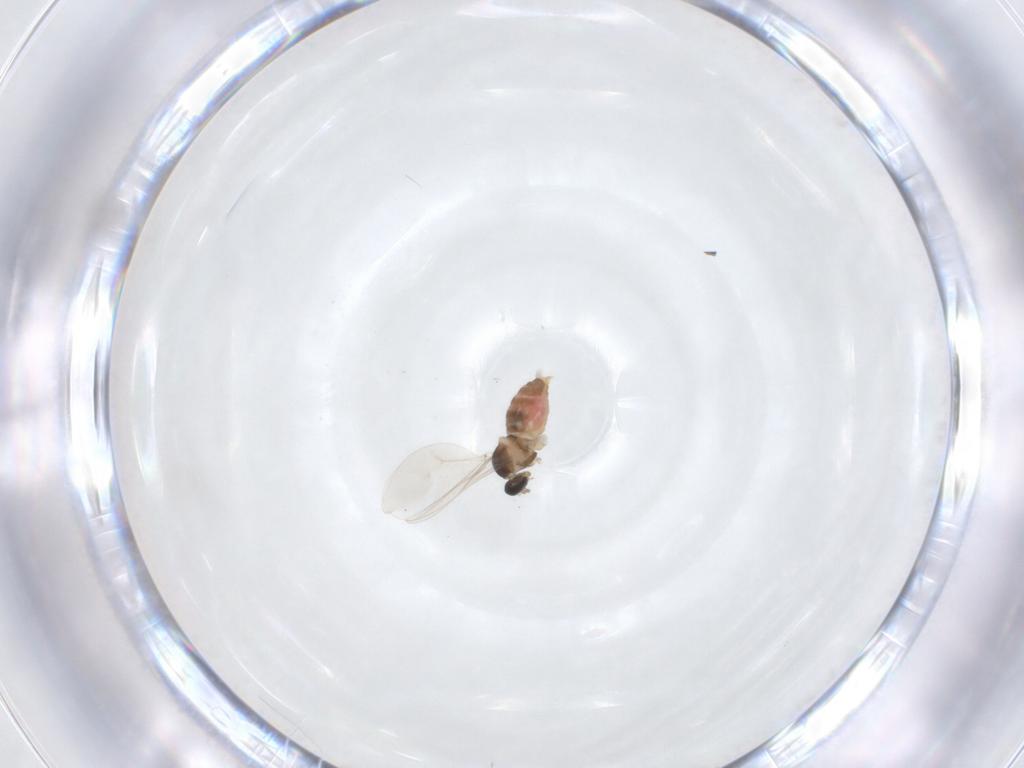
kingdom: Animalia
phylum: Arthropoda
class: Insecta
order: Diptera
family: Cecidomyiidae
